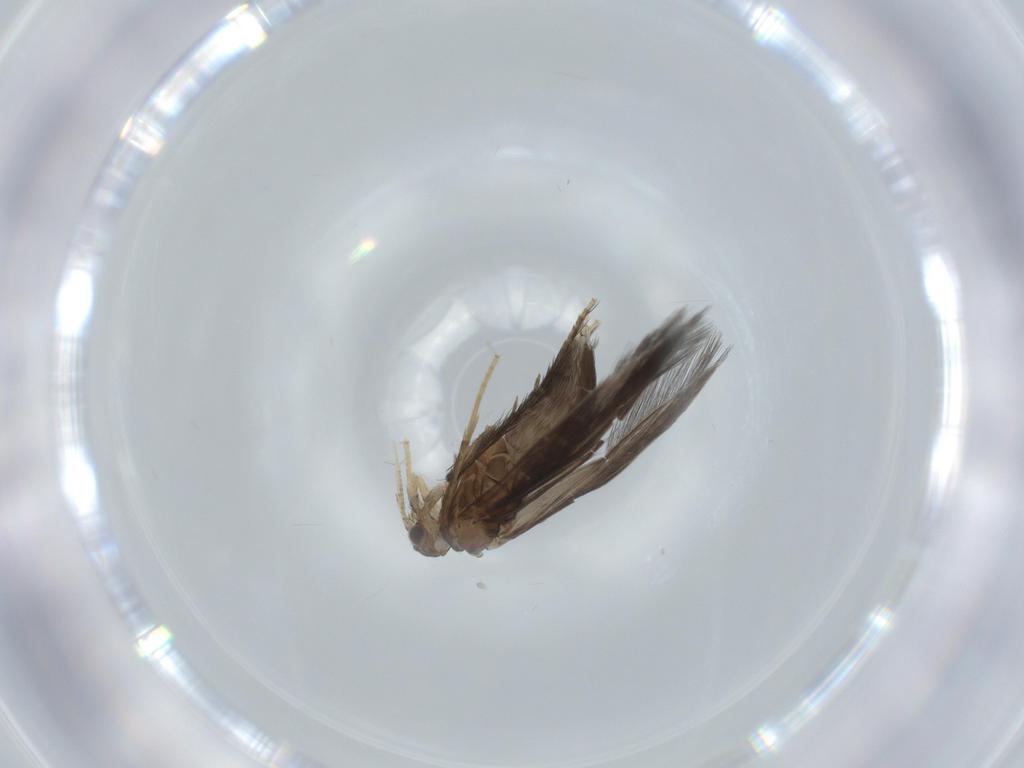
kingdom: Animalia
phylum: Arthropoda
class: Insecta
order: Trichoptera
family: Hydroptilidae
